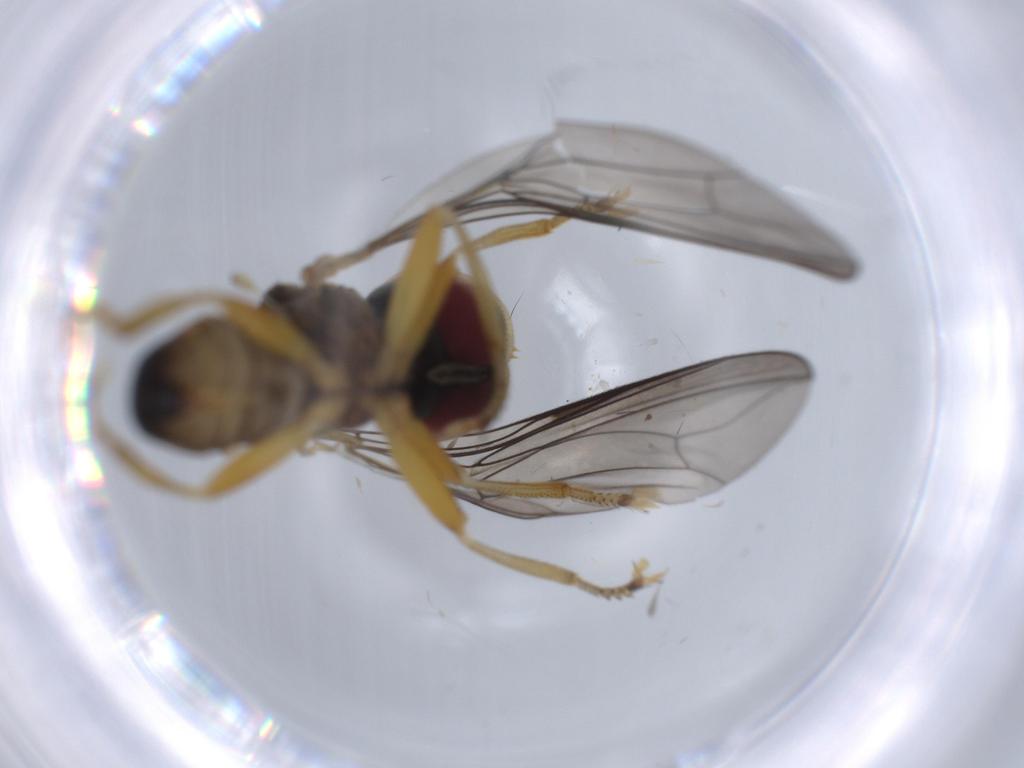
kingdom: Animalia
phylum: Arthropoda
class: Insecta
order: Diptera
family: Pipunculidae
